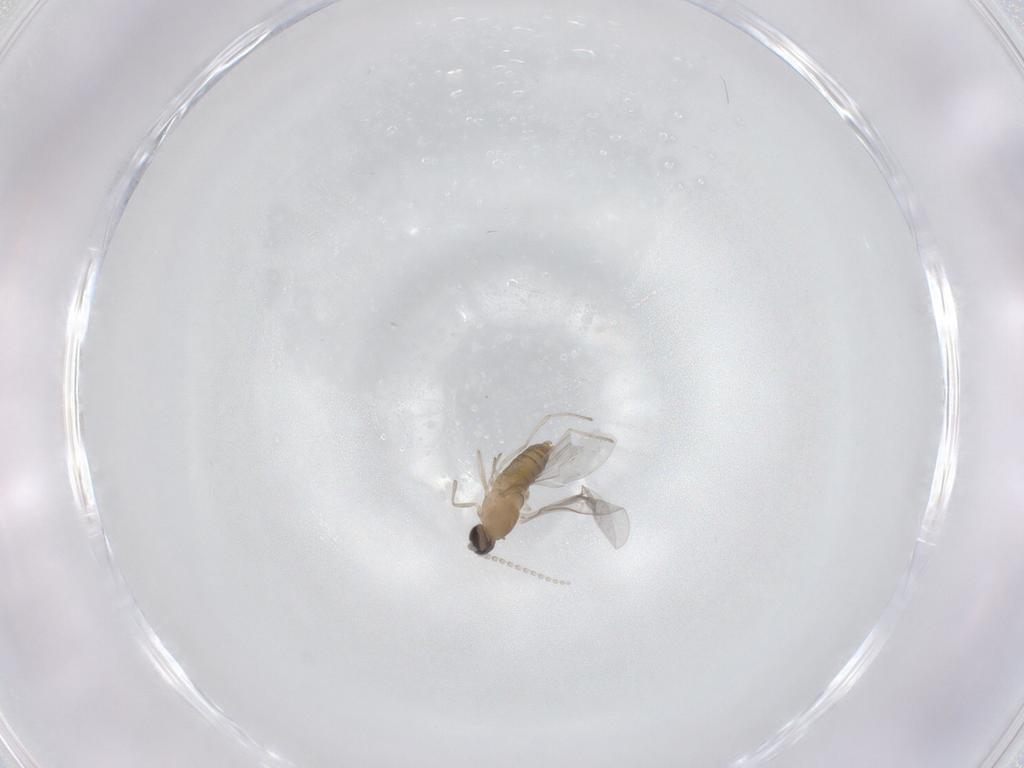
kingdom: Animalia
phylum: Arthropoda
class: Insecta
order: Diptera
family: Cecidomyiidae
